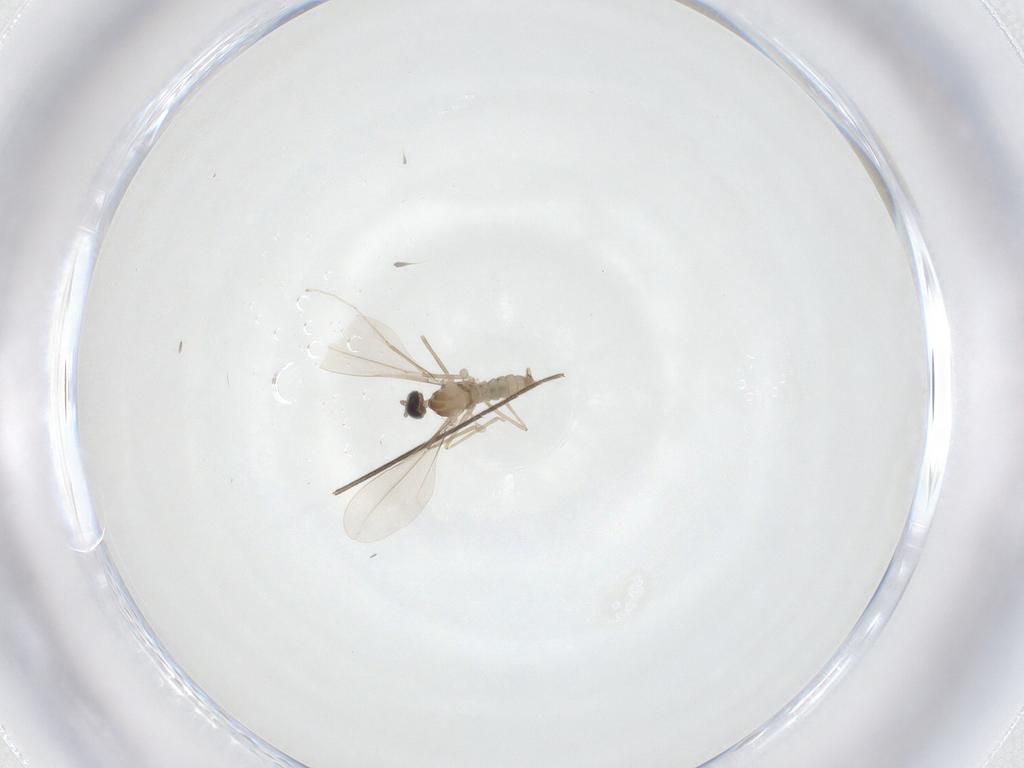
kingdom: Animalia
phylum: Arthropoda
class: Insecta
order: Diptera
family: Cecidomyiidae
